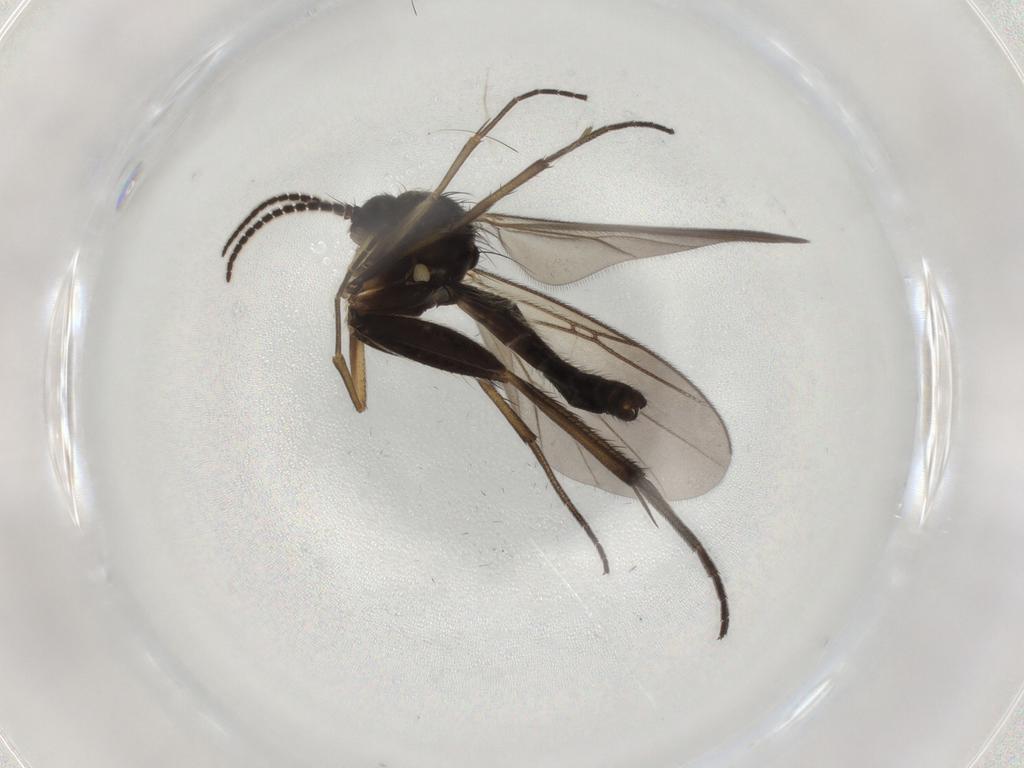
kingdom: Animalia
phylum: Arthropoda
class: Insecta
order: Diptera
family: Mycetophilidae
